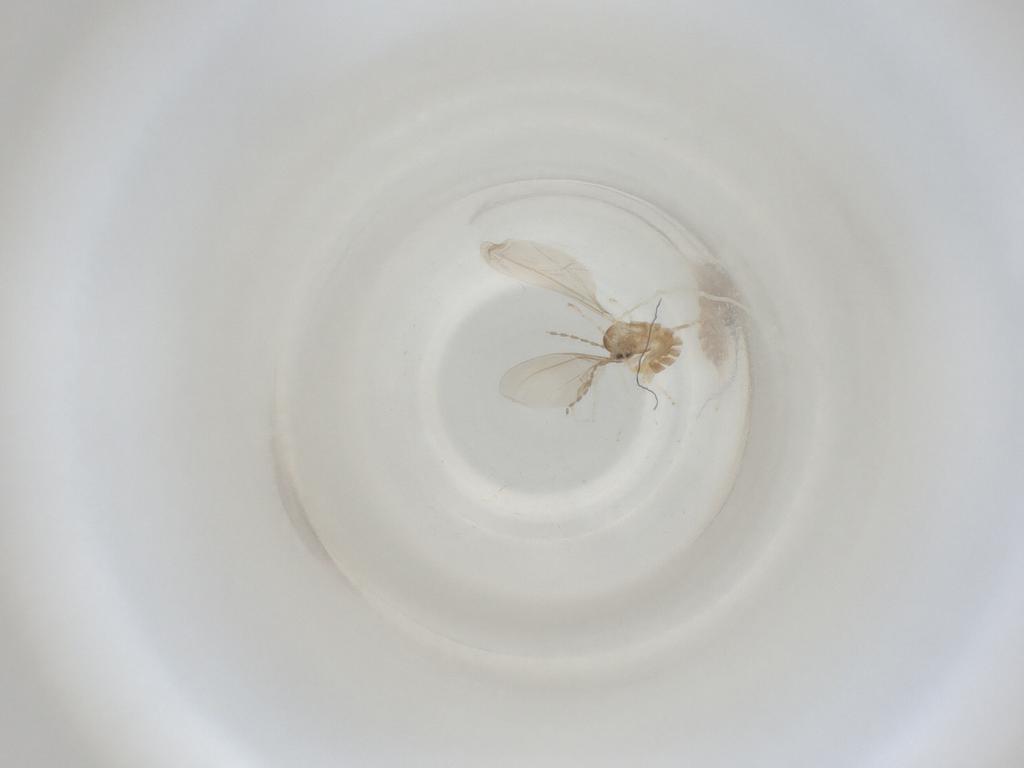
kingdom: Animalia
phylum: Arthropoda
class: Insecta
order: Diptera
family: Cecidomyiidae
